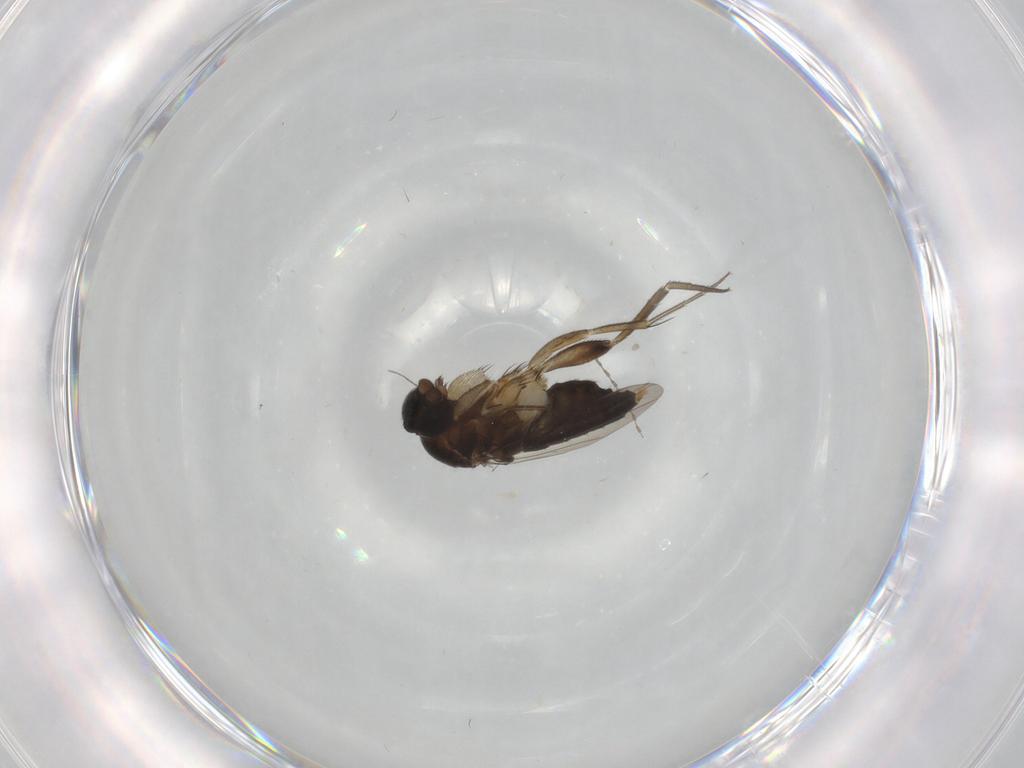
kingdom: Animalia
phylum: Arthropoda
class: Insecta
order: Diptera
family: Phoridae
